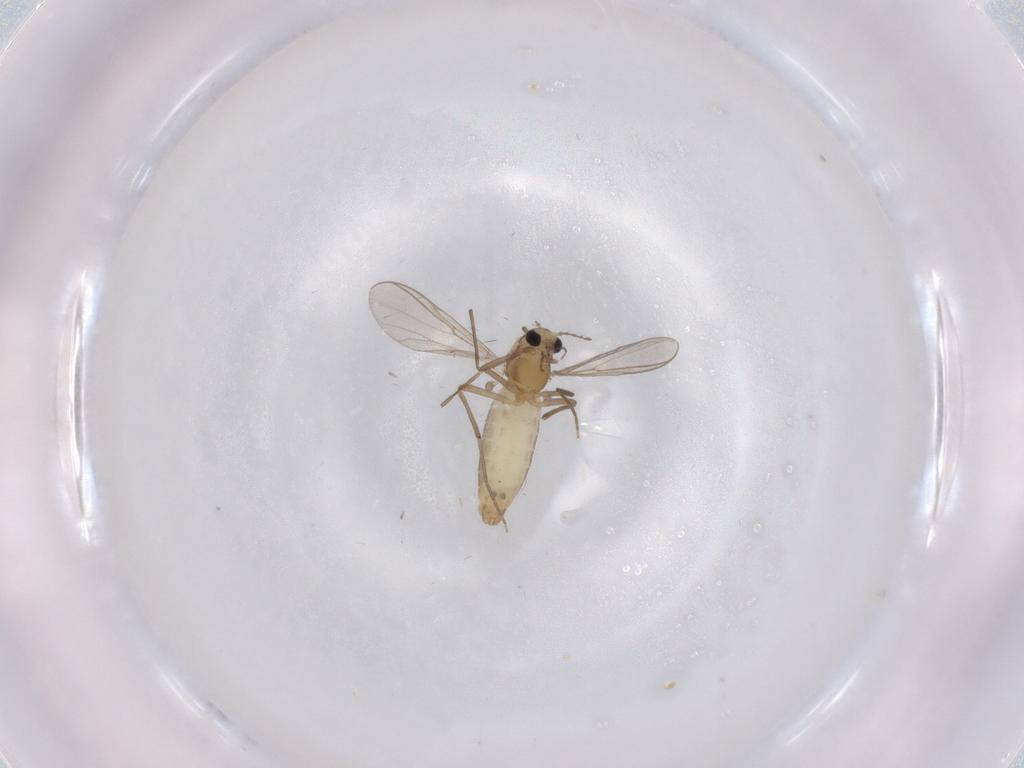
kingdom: Animalia
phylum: Arthropoda
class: Insecta
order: Diptera
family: Chironomidae
